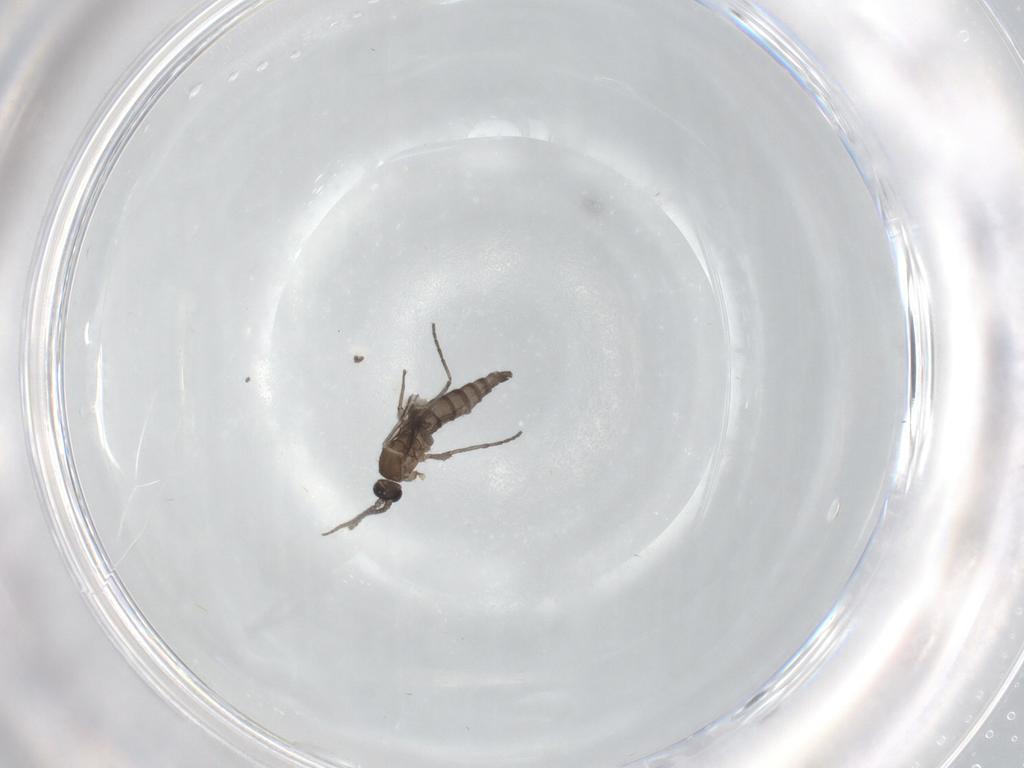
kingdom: Animalia
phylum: Arthropoda
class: Insecta
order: Diptera
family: Sciaridae
